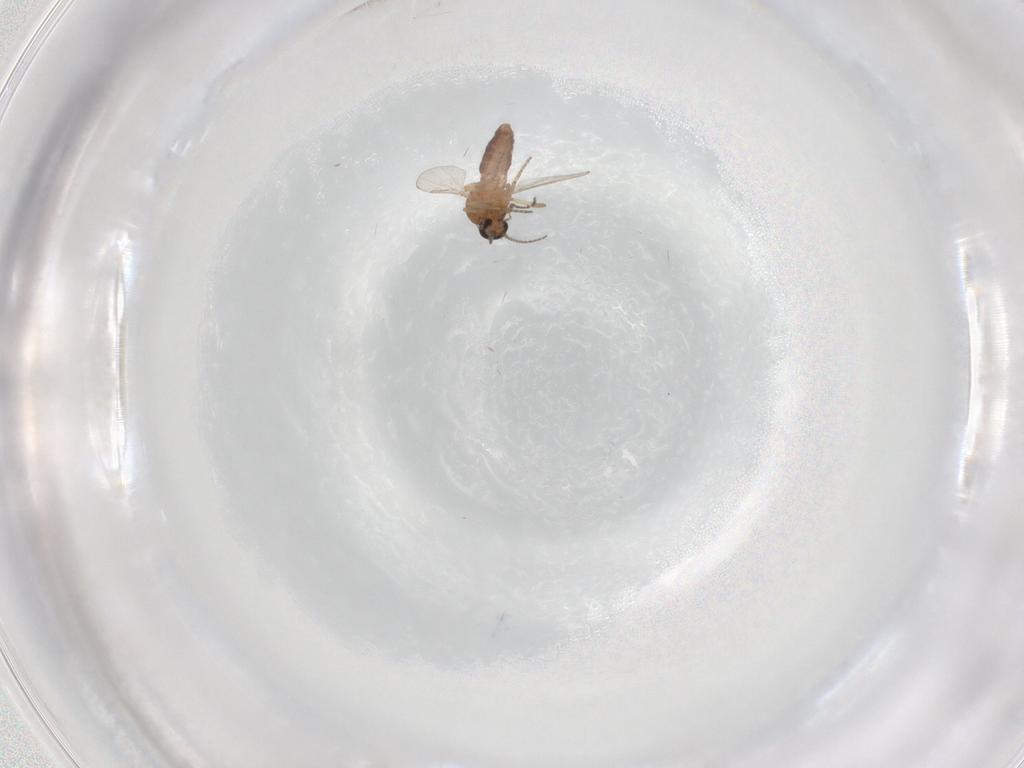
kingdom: Animalia
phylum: Arthropoda
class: Insecta
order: Diptera
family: Ceratopogonidae
